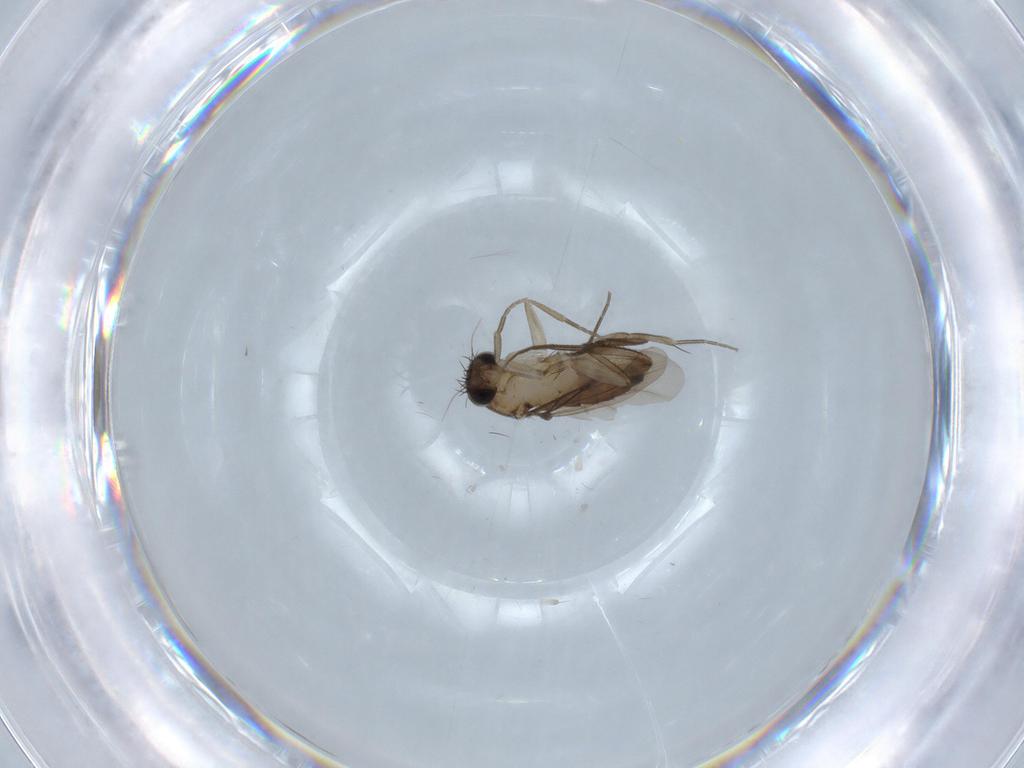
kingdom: Animalia
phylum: Arthropoda
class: Insecta
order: Diptera
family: Phoridae
